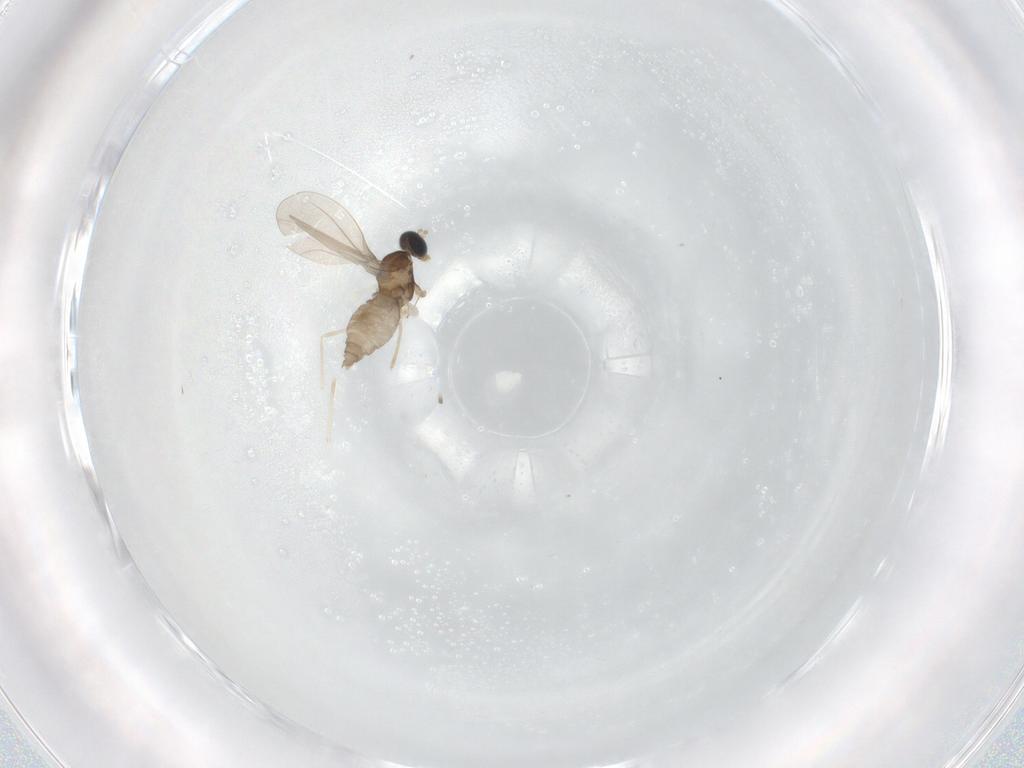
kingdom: Animalia
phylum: Arthropoda
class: Insecta
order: Diptera
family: Cecidomyiidae
